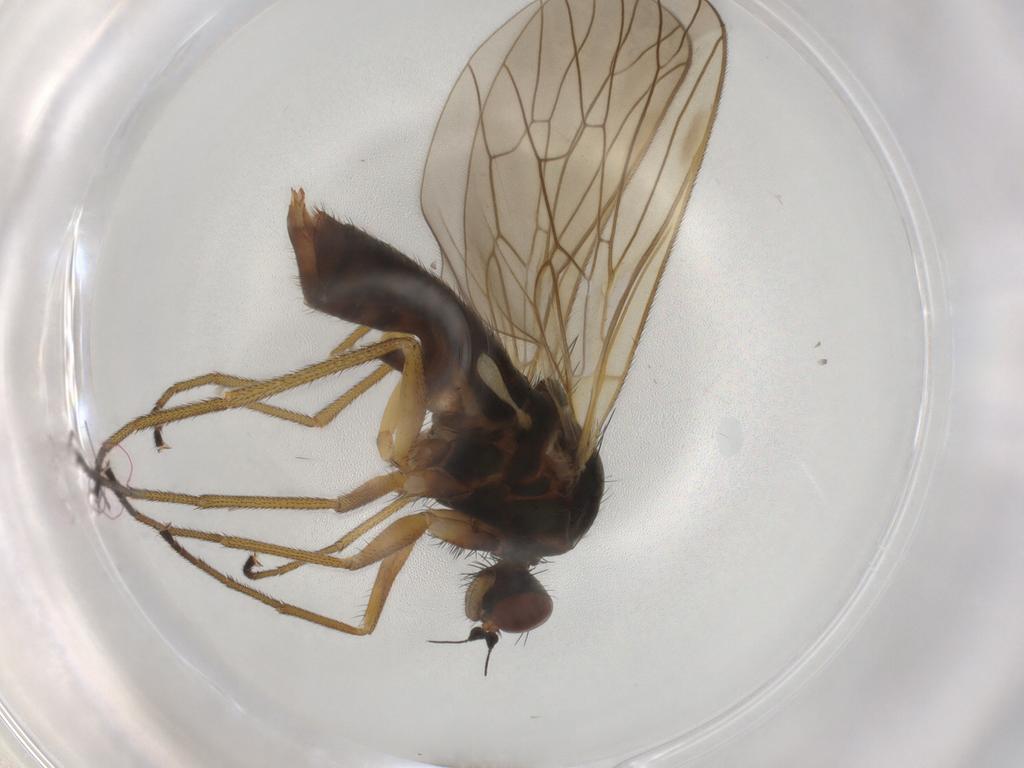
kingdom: Animalia
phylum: Arthropoda
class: Insecta
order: Diptera
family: Brachystomatidae
